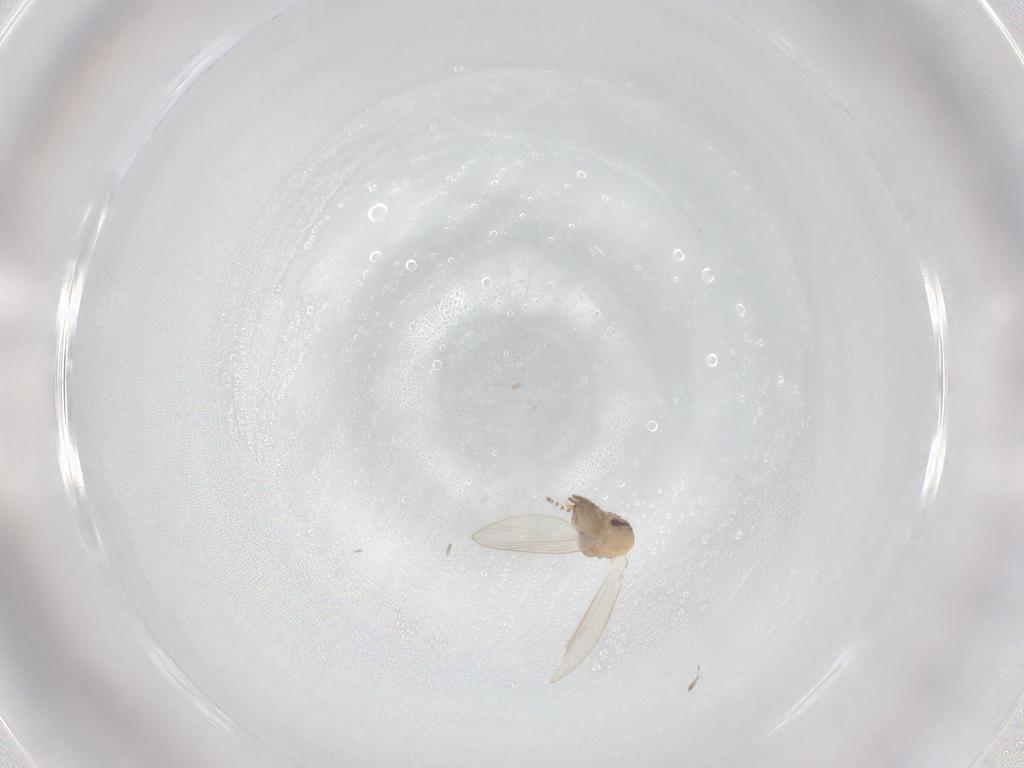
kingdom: Animalia
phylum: Arthropoda
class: Insecta
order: Diptera
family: Psychodidae
